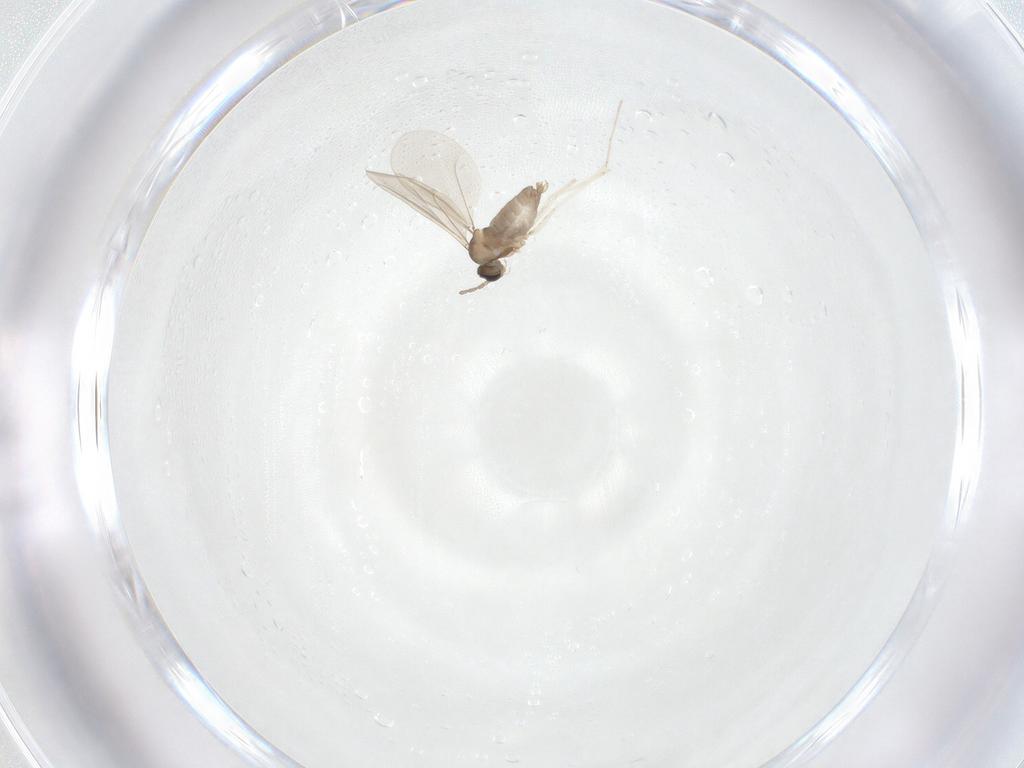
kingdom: Animalia
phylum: Arthropoda
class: Insecta
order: Diptera
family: Cecidomyiidae
